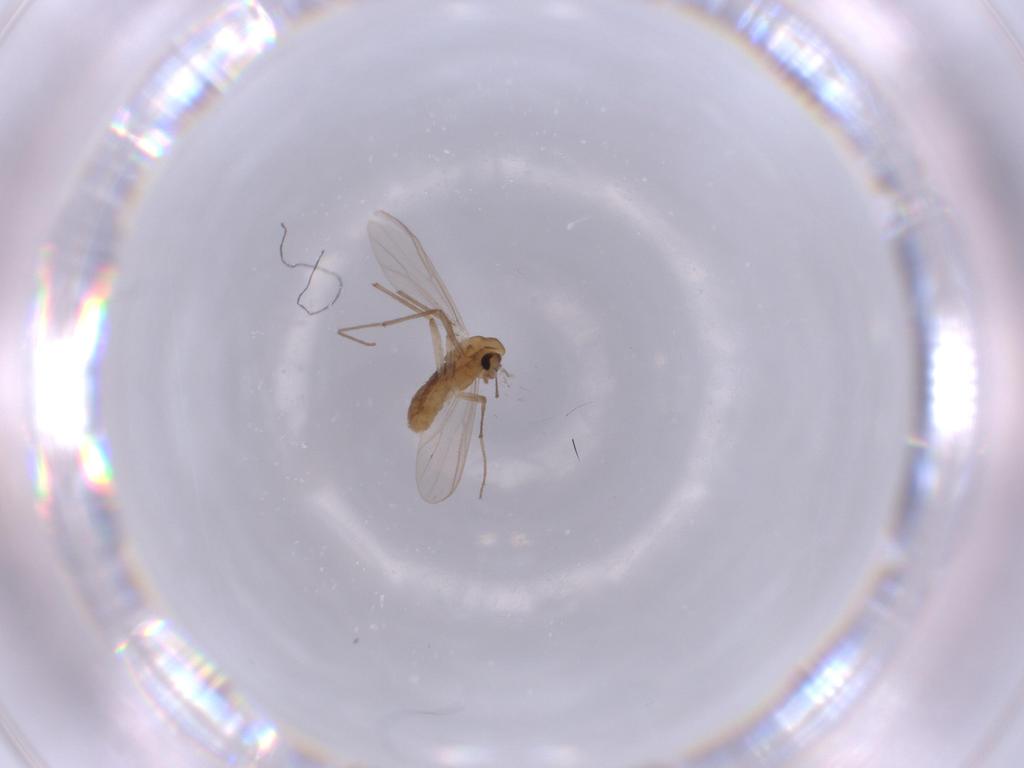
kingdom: Animalia
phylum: Arthropoda
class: Insecta
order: Diptera
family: Chironomidae
